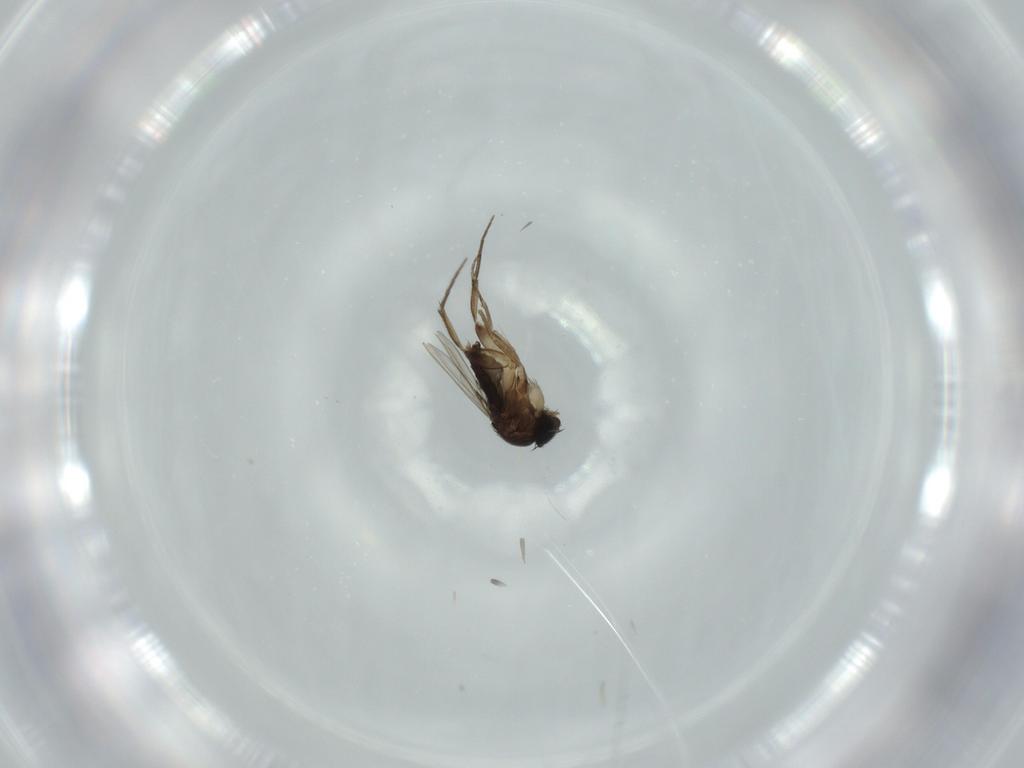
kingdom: Animalia
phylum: Arthropoda
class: Insecta
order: Diptera
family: Phoridae
